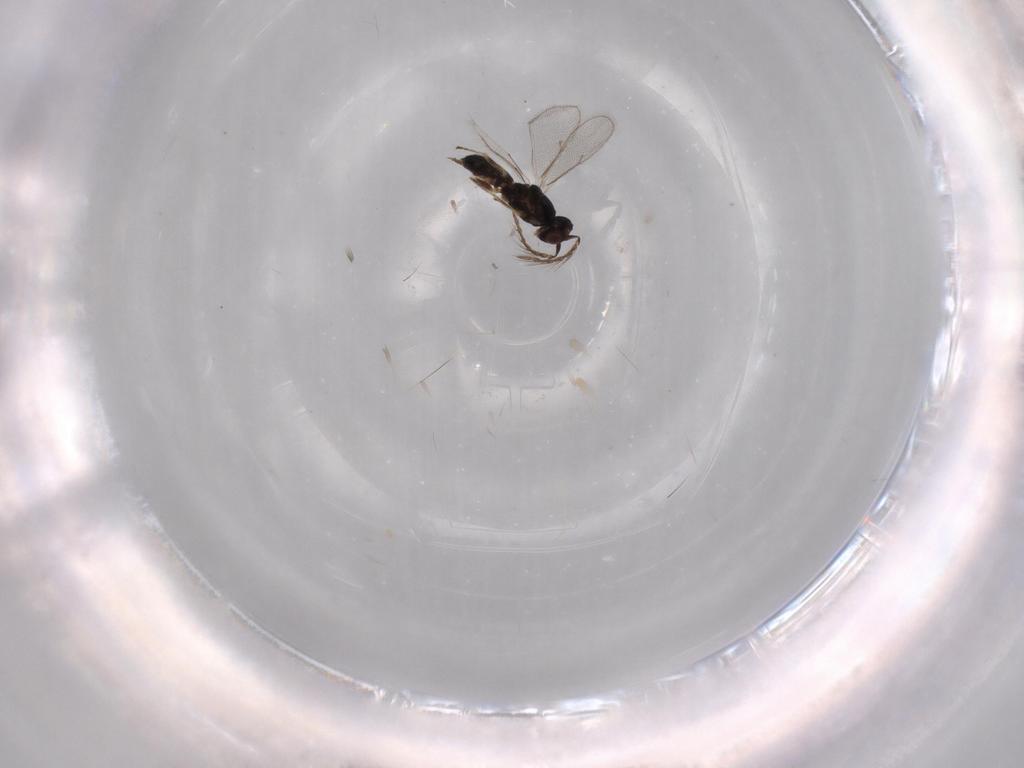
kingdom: Animalia
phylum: Arthropoda
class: Insecta
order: Hymenoptera
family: Eulophidae
